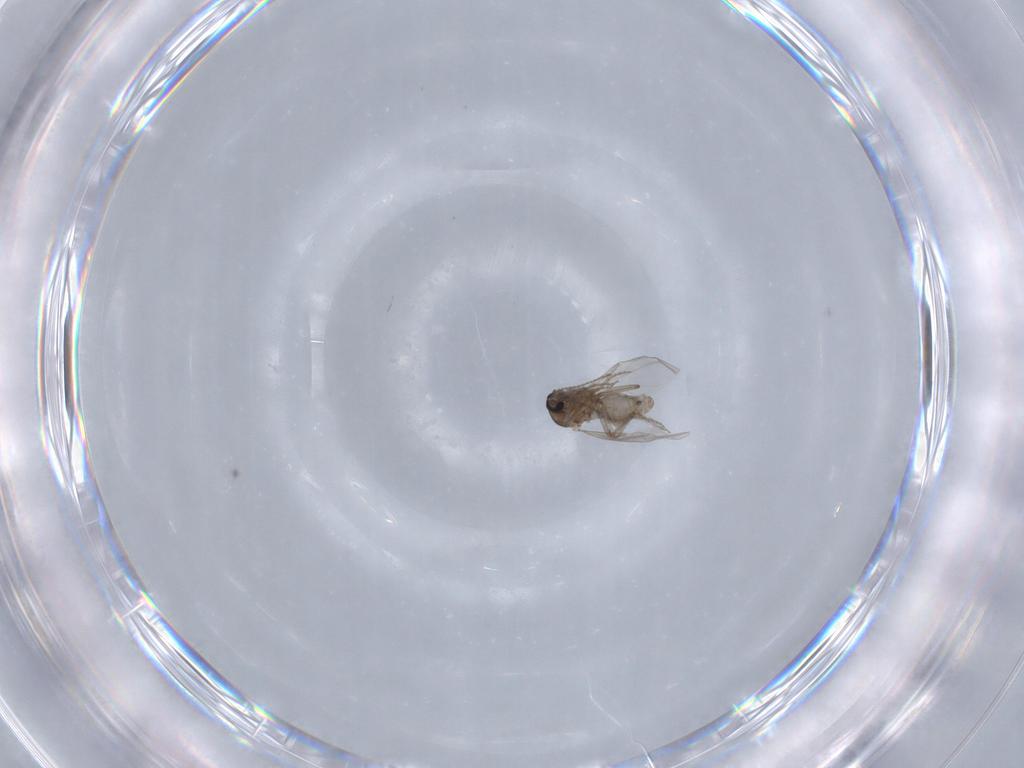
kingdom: Animalia
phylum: Arthropoda
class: Insecta
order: Diptera
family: Ceratopogonidae
